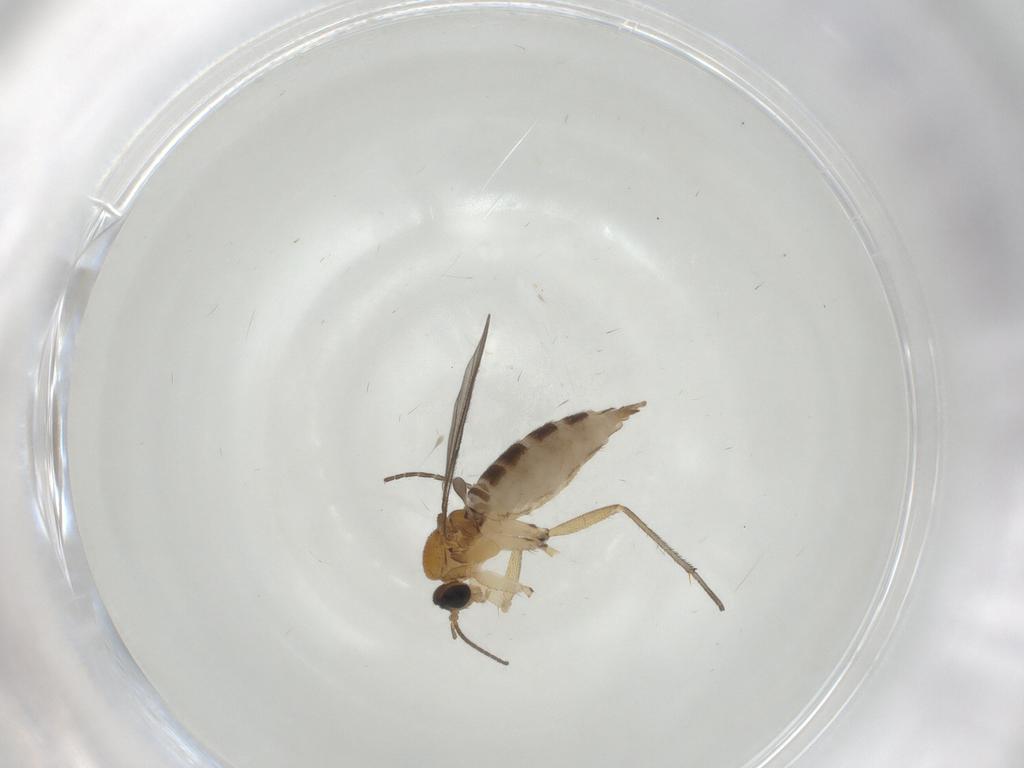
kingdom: Animalia
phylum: Arthropoda
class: Insecta
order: Diptera
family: Sciaridae
